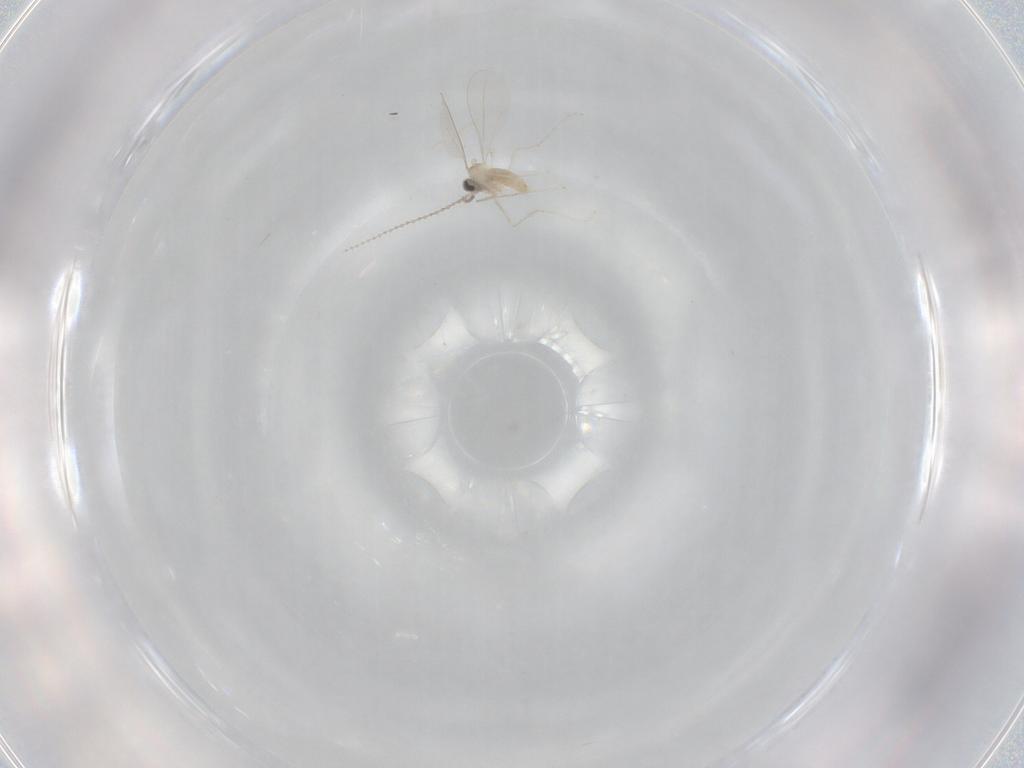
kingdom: Animalia
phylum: Arthropoda
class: Insecta
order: Diptera
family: Cecidomyiidae
